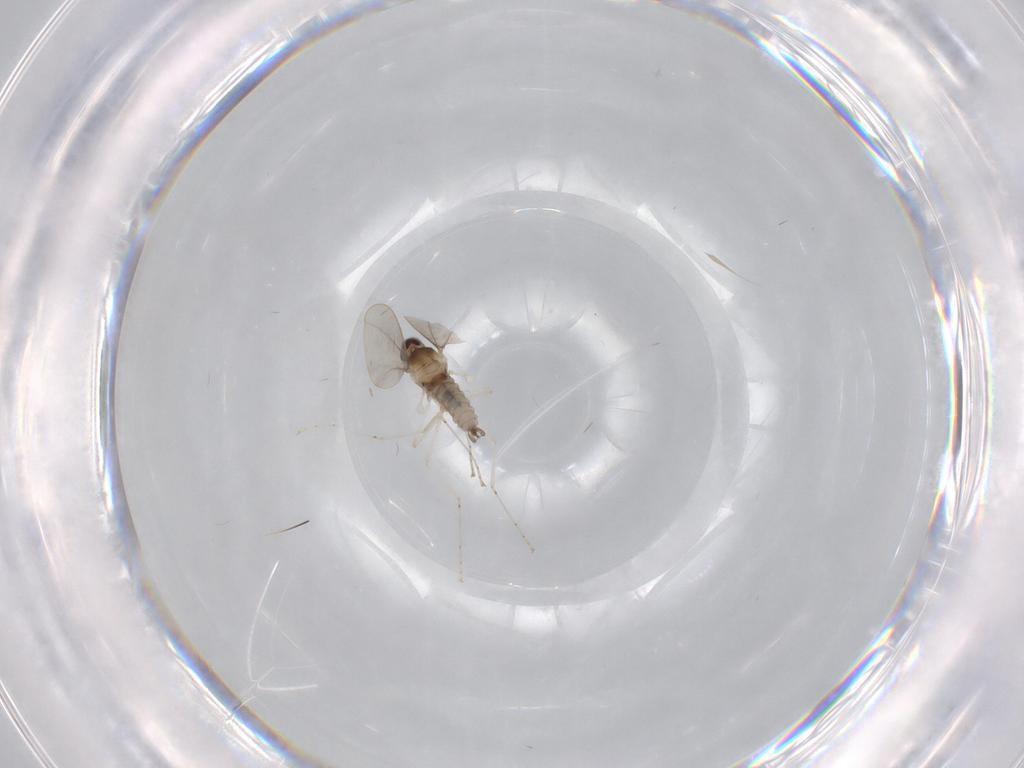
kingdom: Animalia
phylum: Arthropoda
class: Insecta
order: Diptera
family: Cecidomyiidae
